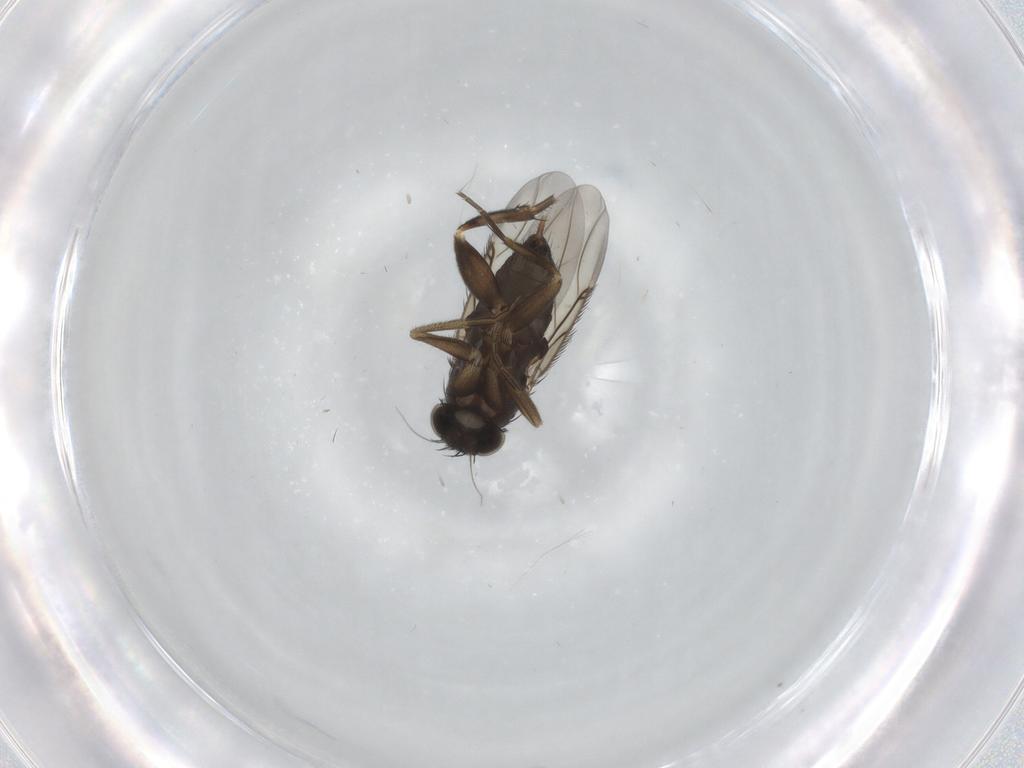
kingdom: Animalia
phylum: Arthropoda
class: Insecta
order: Diptera
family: Phoridae
